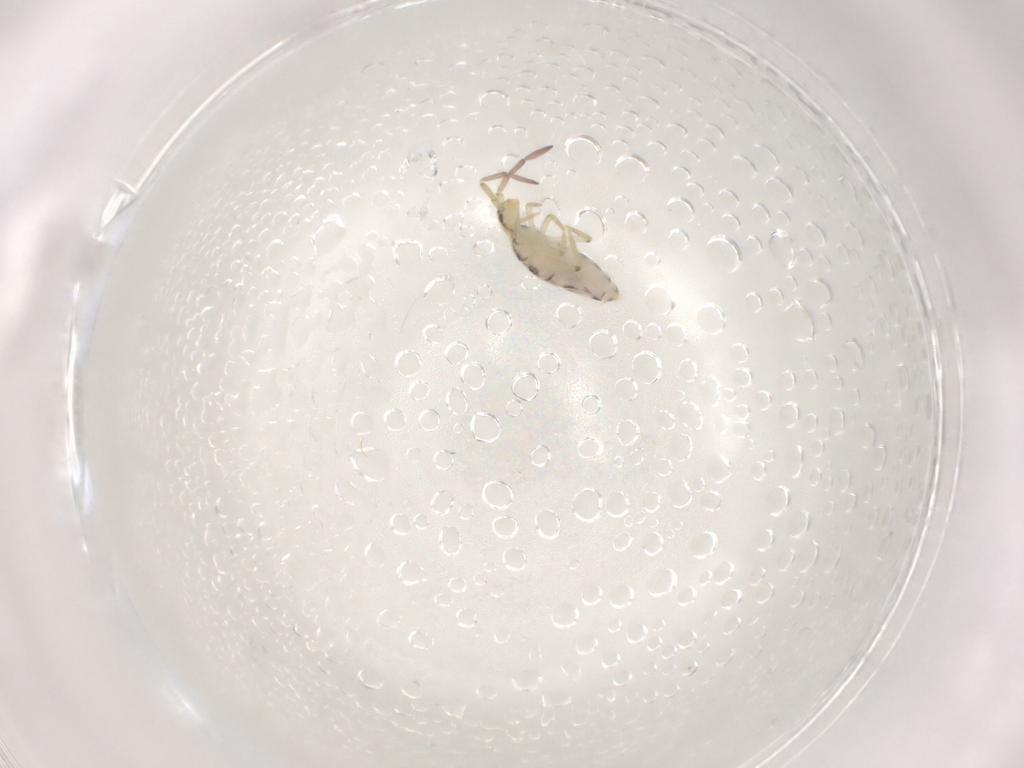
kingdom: Animalia
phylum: Arthropoda
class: Collembola
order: Entomobryomorpha
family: Entomobryidae
